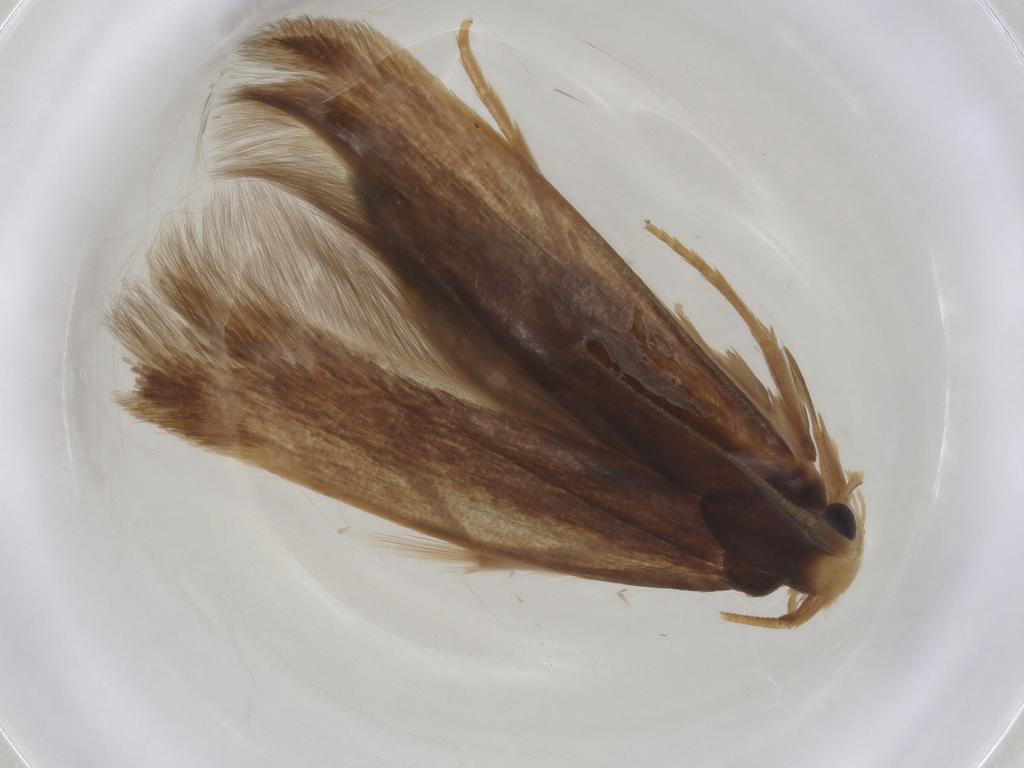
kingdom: Animalia
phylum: Arthropoda
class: Insecta
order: Lepidoptera
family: Tineidae
